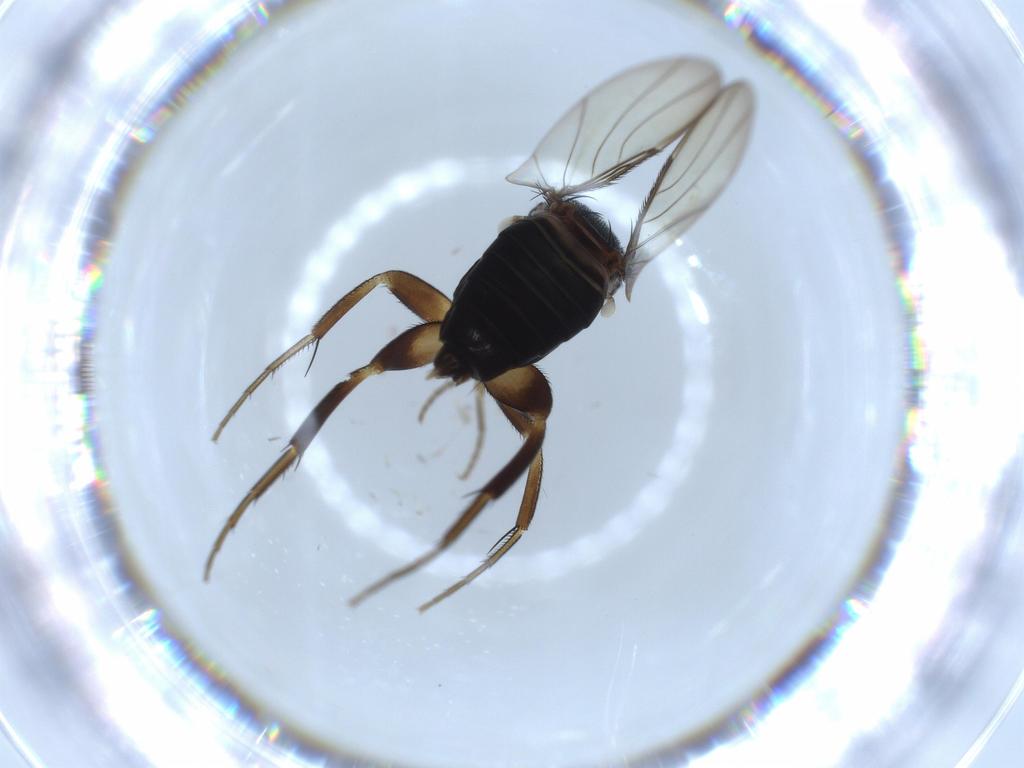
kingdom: Animalia
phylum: Arthropoda
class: Insecta
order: Diptera
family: Phoridae
